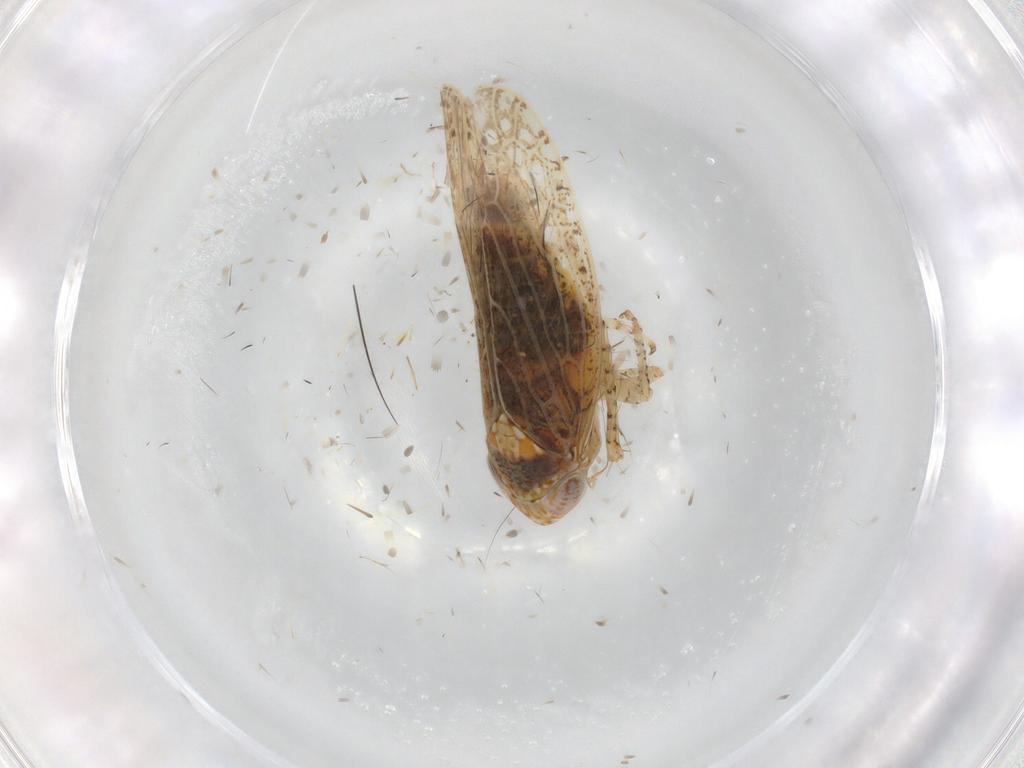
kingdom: Animalia
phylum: Arthropoda
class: Insecta
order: Hemiptera
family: Cicadellidae
